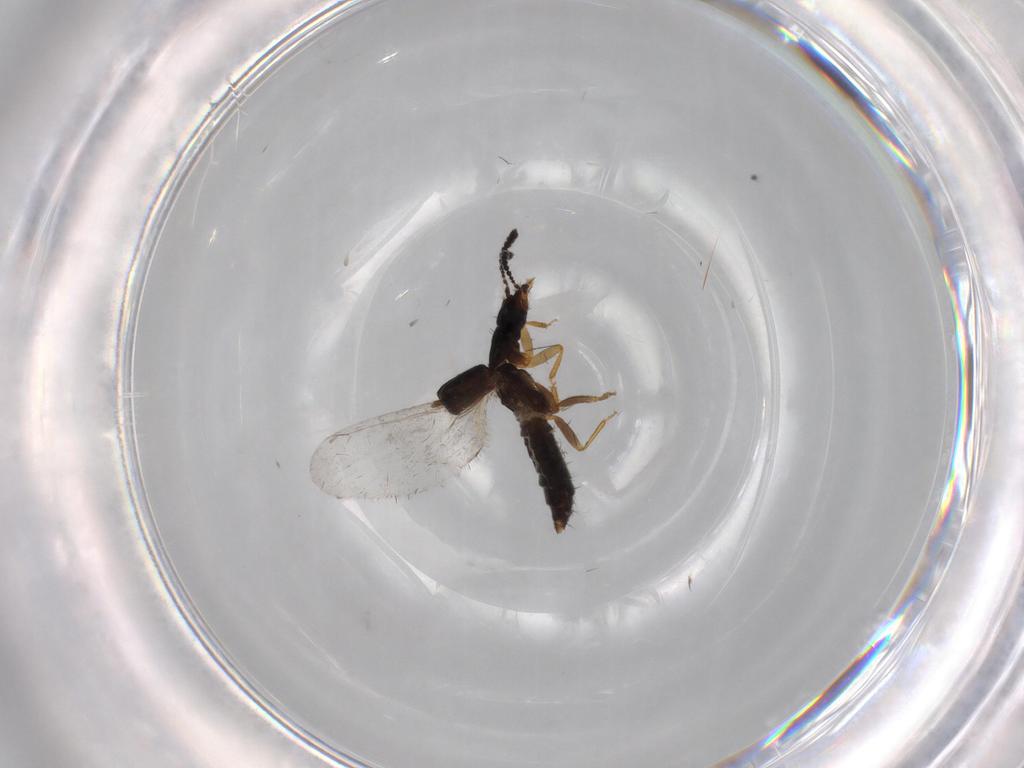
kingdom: Animalia
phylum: Arthropoda
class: Insecta
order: Coleoptera
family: Staphylinidae
